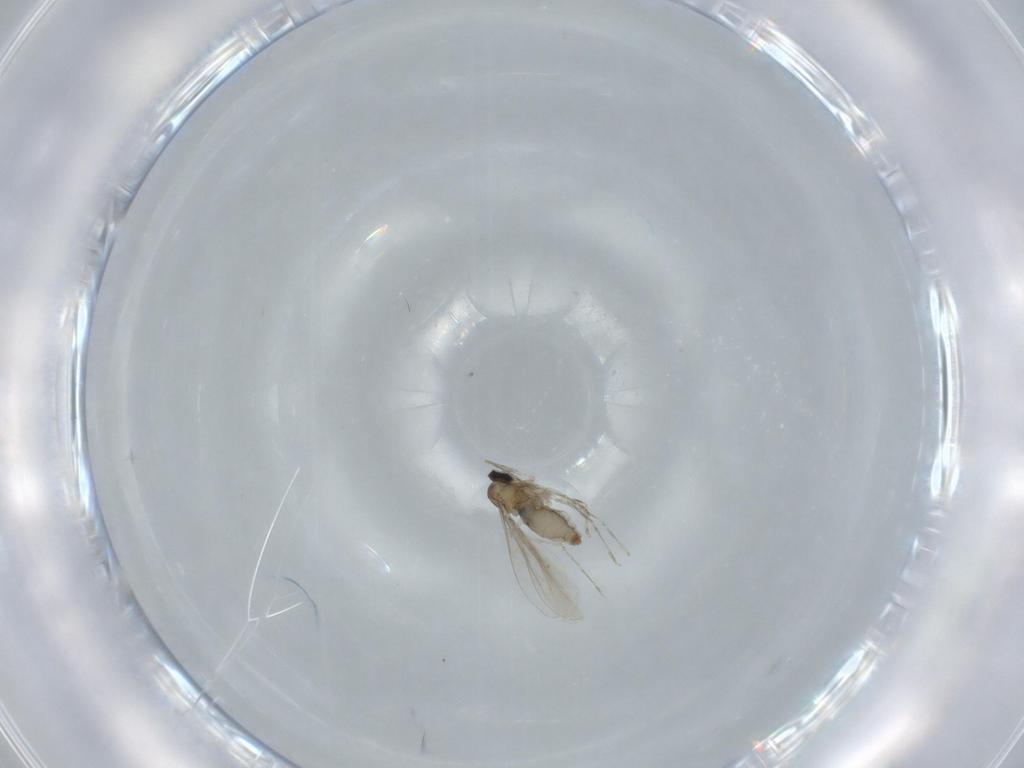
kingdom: Animalia
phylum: Arthropoda
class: Insecta
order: Diptera
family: Cecidomyiidae
